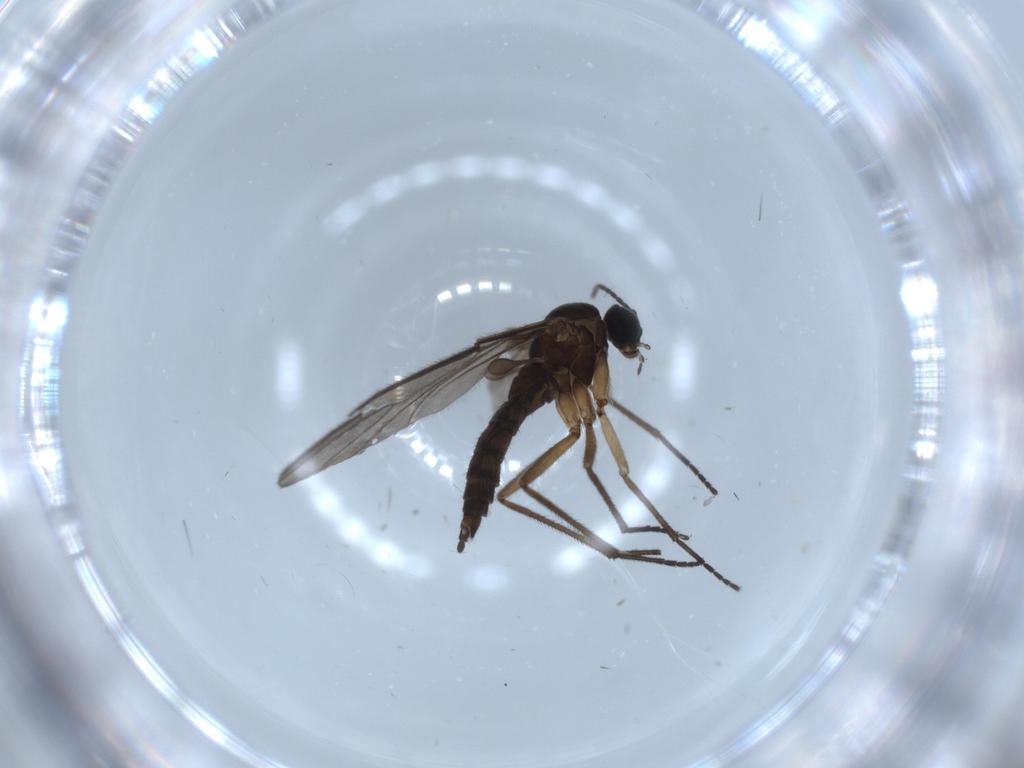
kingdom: Animalia
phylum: Arthropoda
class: Insecta
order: Diptera
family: Sciaridae
